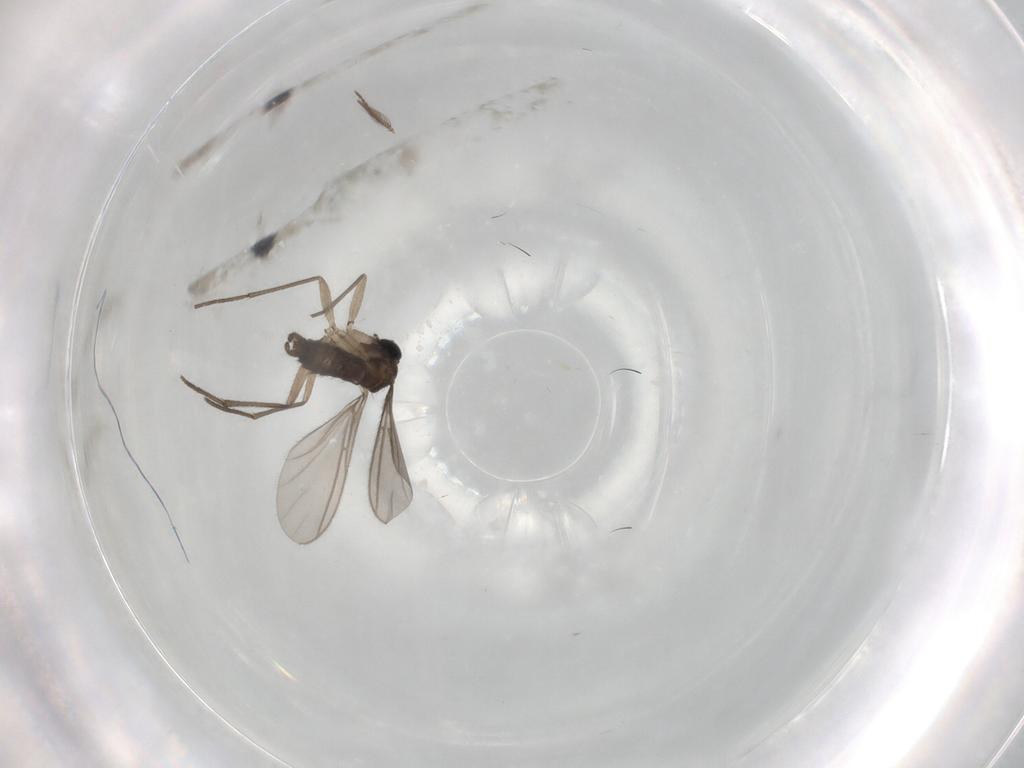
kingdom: Animalia
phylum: Arthropoda
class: Insecta
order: Diptera
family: Sciaridae
